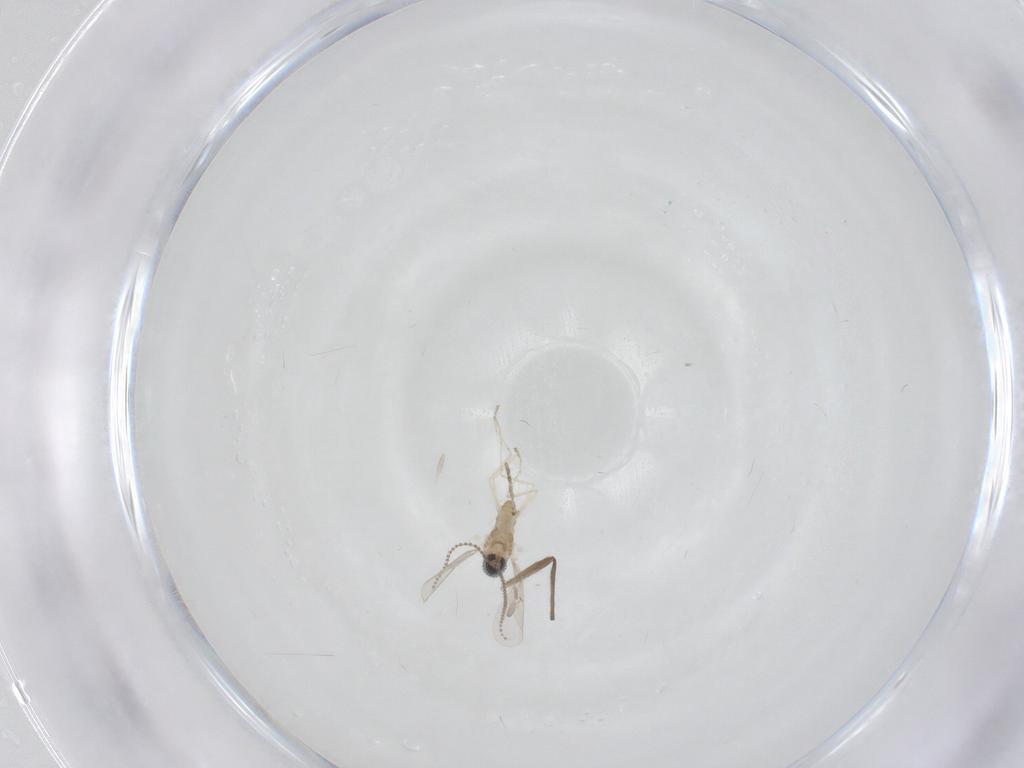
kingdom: Animalia
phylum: Arthropoda
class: Insecta
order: Diptera
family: Cecidomyiidae
